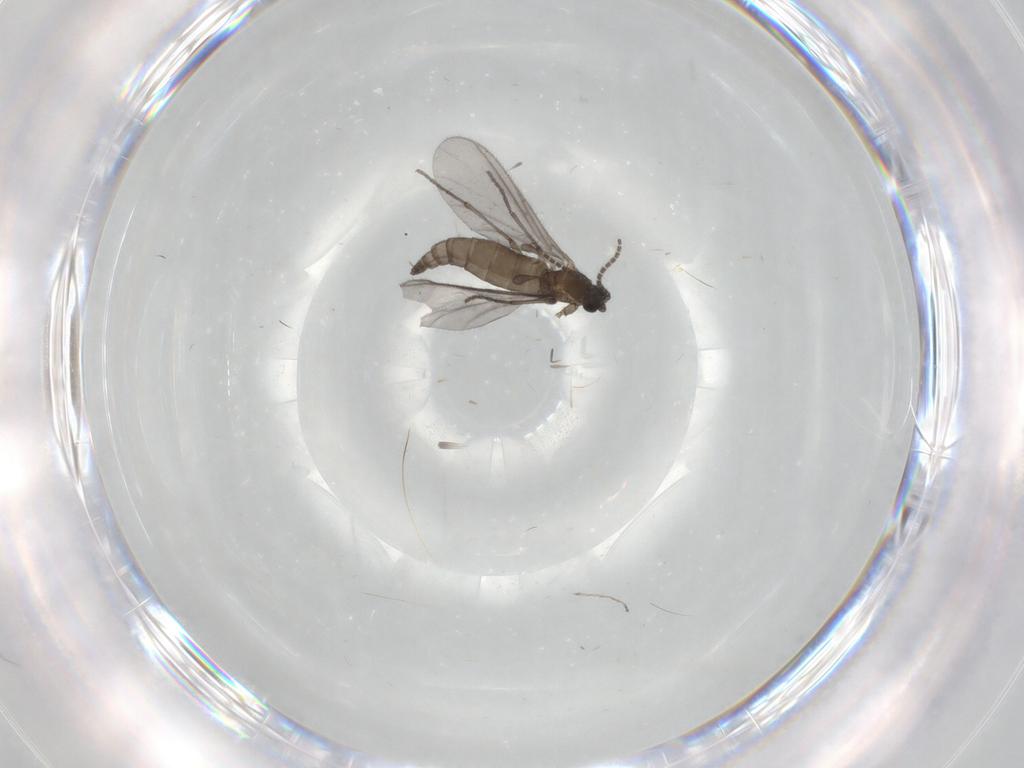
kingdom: Animalia
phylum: Arthropoda
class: Insecta
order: Diptera
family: Sciaridae
